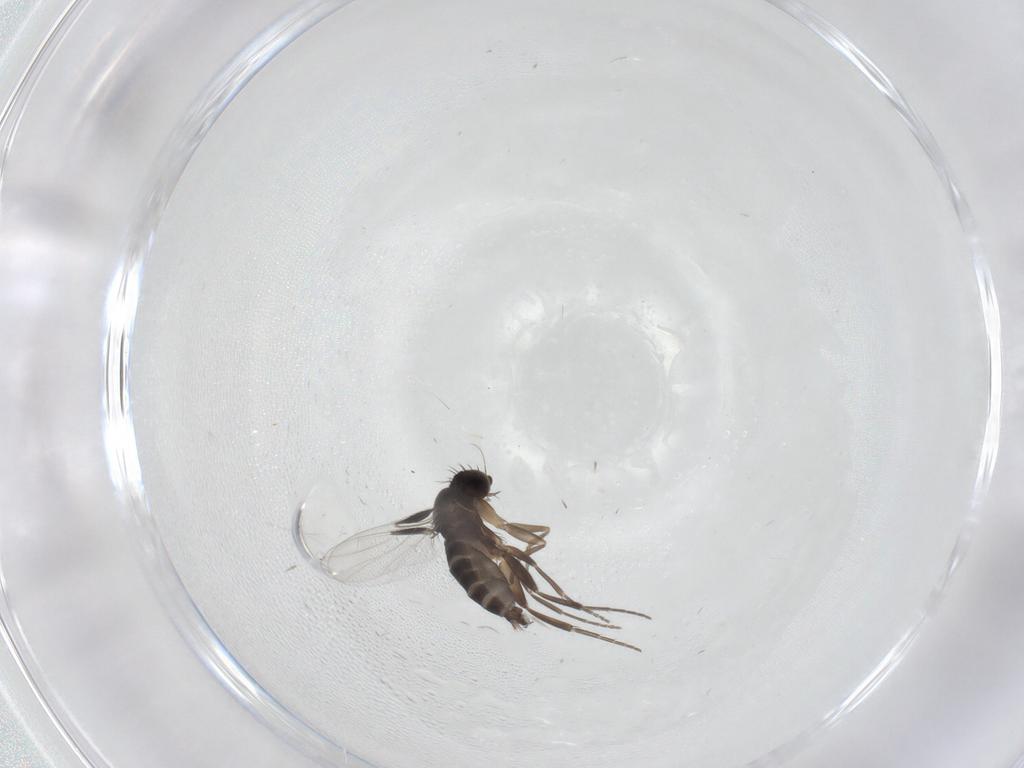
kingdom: Animalia
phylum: Arthropoda
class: Insecta
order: Diptera
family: Phoridae
